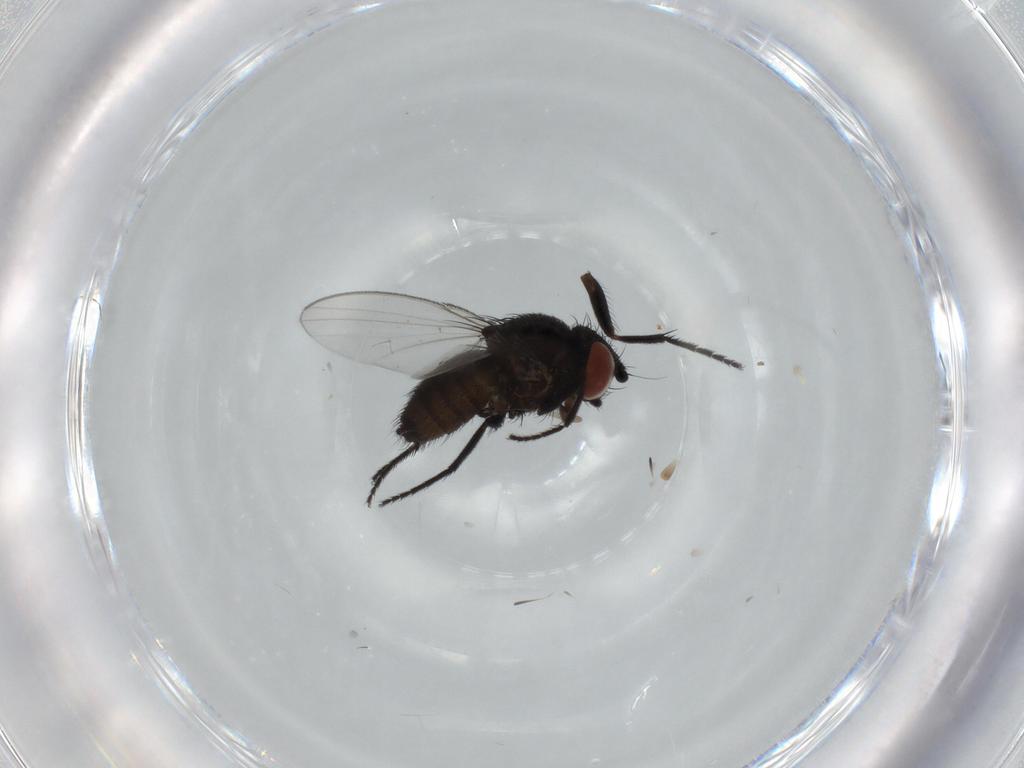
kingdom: Animalia
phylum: Arthropoda
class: Insecta
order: Diptera
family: Milichiidae
